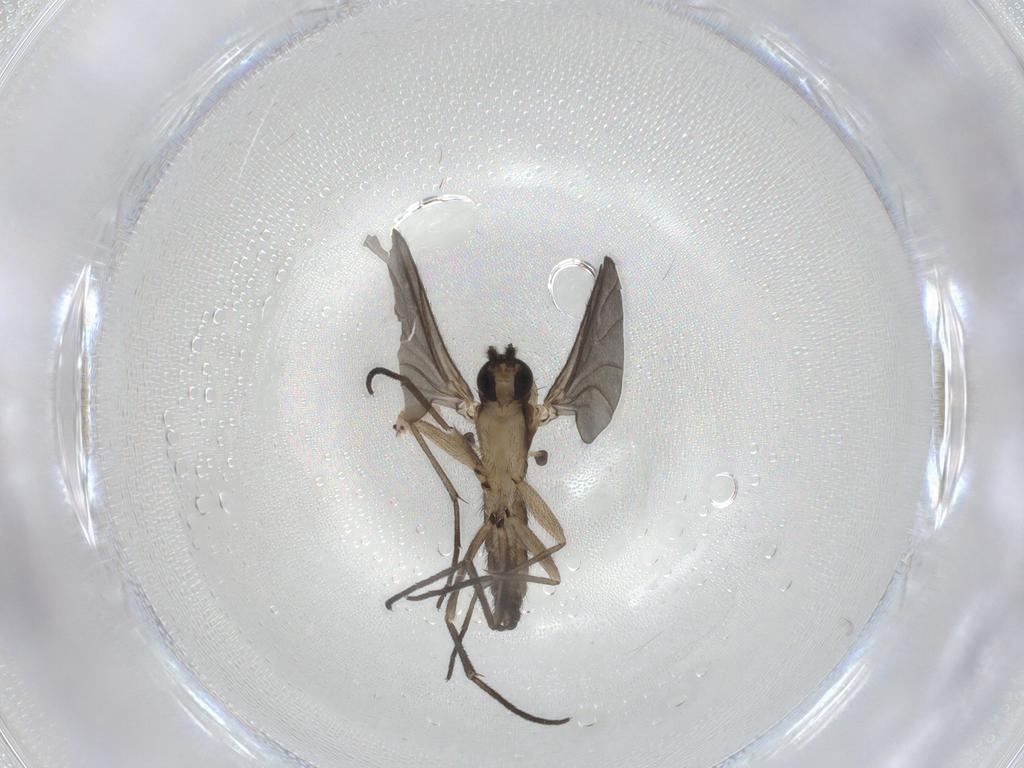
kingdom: Animalia
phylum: Arthropoda
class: Insecta
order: Diptera
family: Sciaridae
